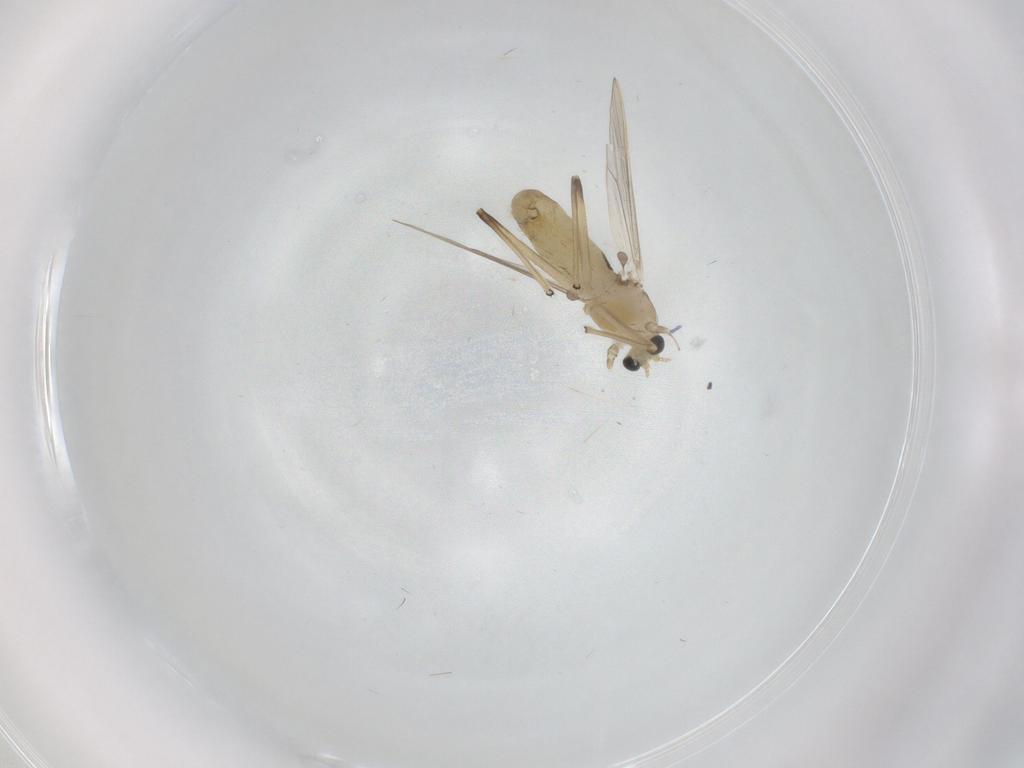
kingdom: Animalia
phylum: Arthropoda
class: Insecta
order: Diptera
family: Chironomidae
